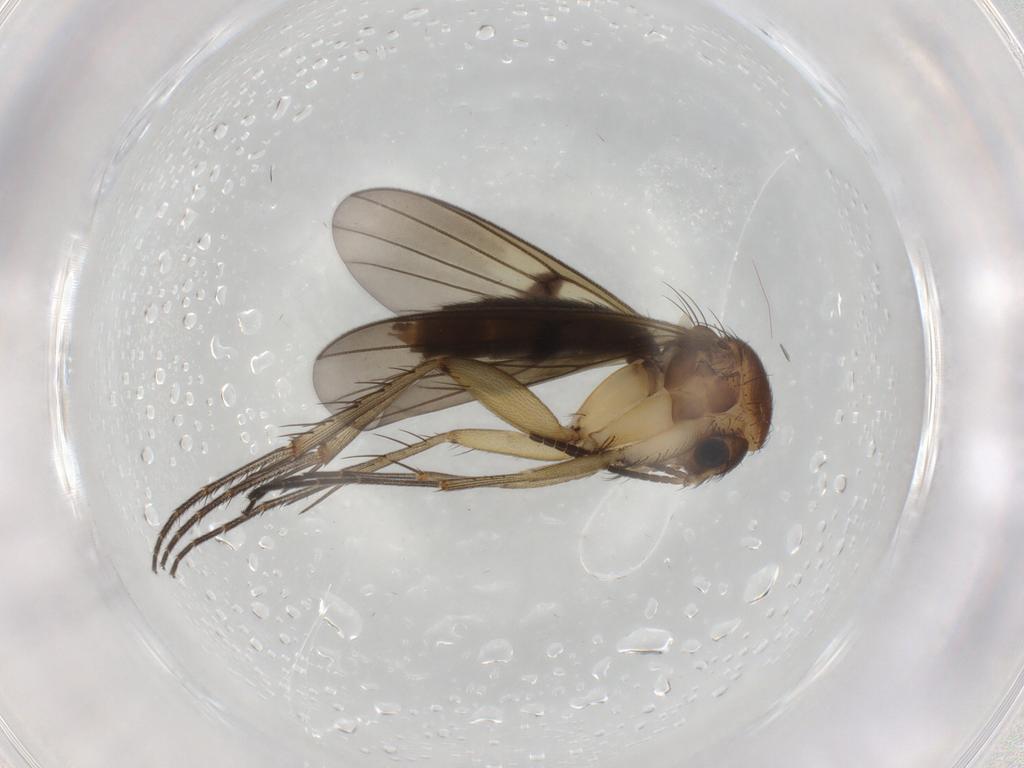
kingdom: Animalia
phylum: Arthropoda
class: Insecta
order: Diptera
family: Mycetophilidae
